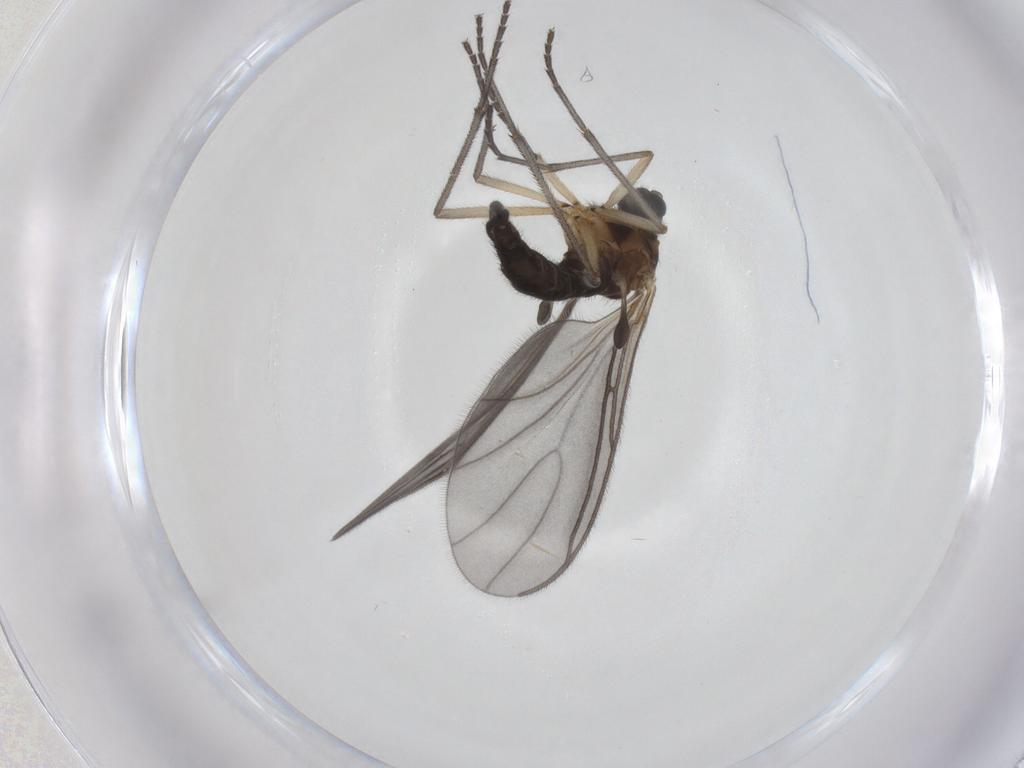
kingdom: Animalia
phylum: Arthropoda
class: Insecta
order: Diptera
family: Sciaridae
